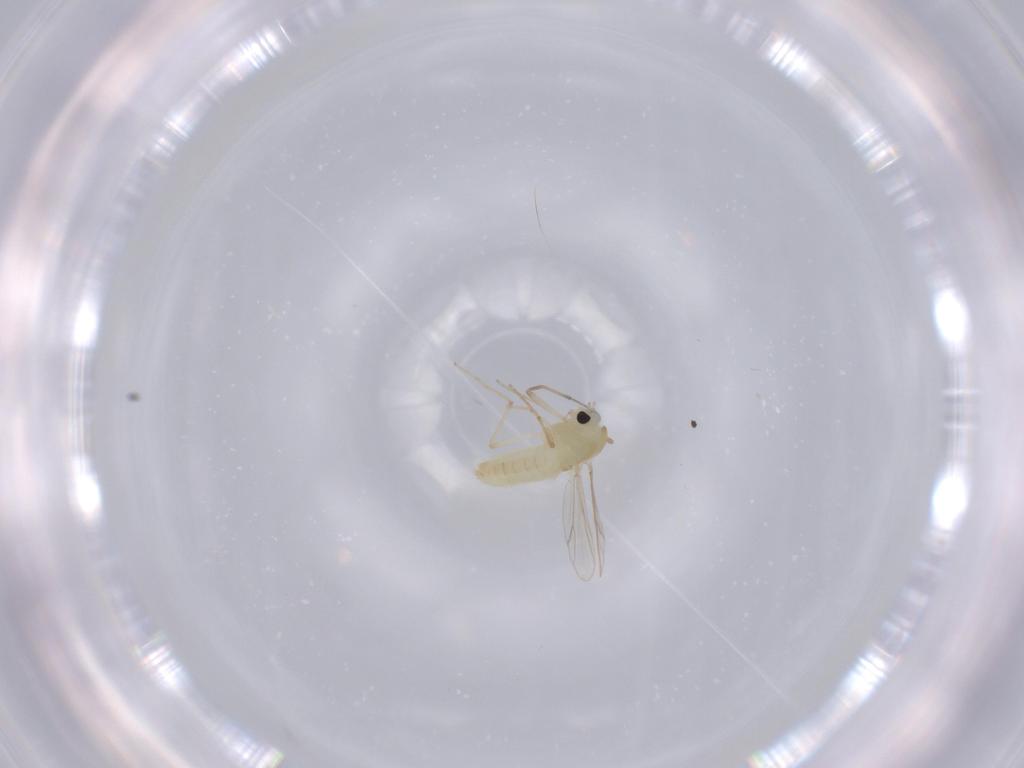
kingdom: Animalia
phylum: Arthropoda
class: Insecta
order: Diptera
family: Chironomidae
